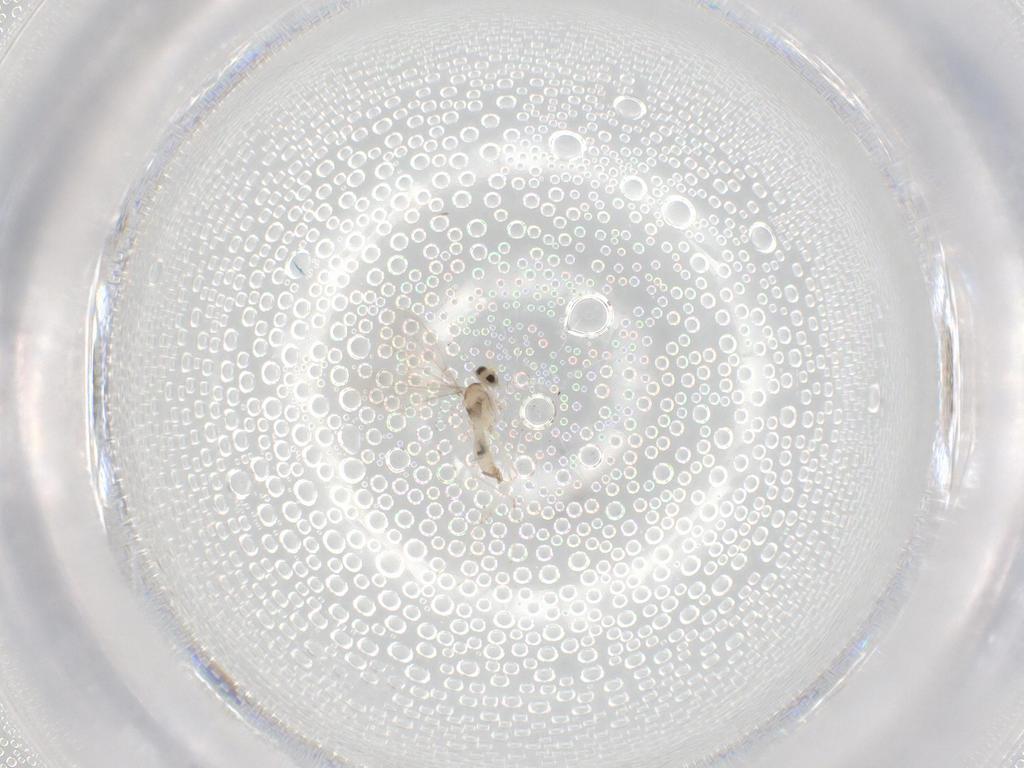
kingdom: Animalia
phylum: Arthropoda
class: Insecta
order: Diptera
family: Cecidomyiidae
